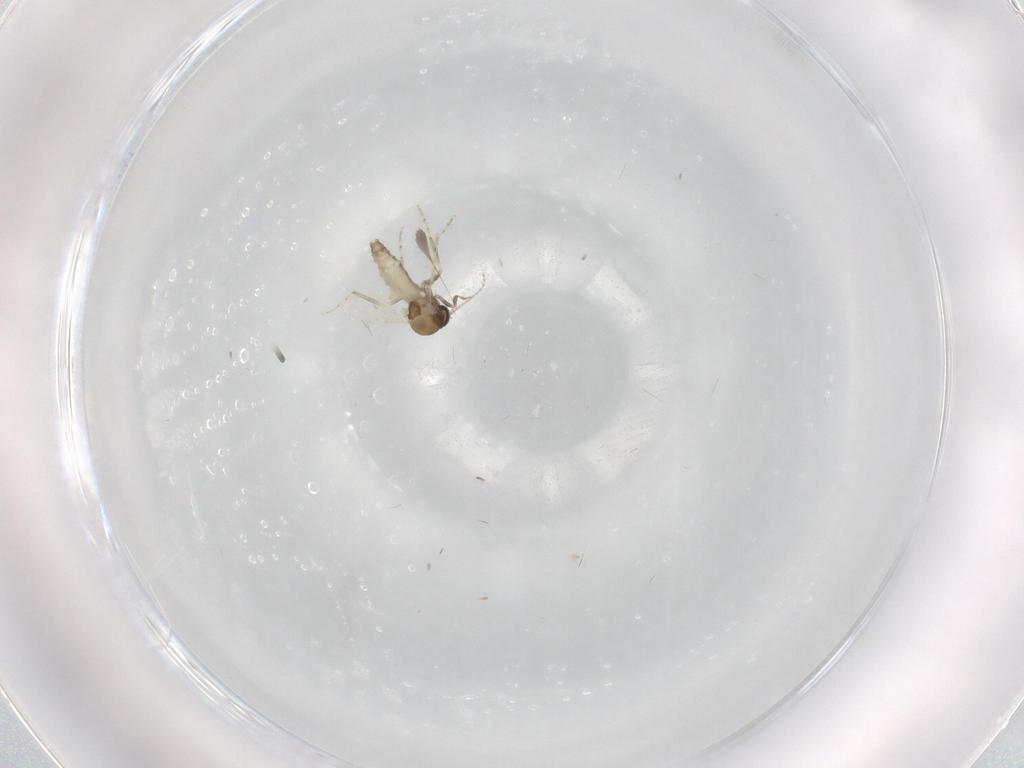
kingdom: Animalia
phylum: Arthropoda
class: Insecta
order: Diptera
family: Ceratopogonidae
